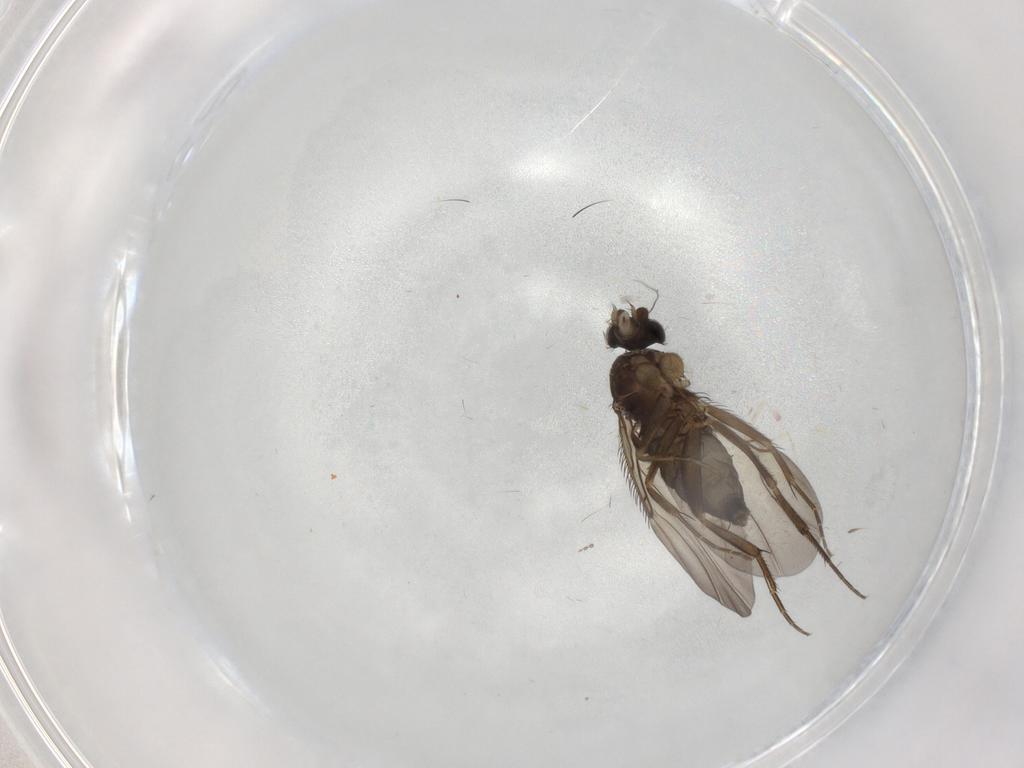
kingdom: Animalia
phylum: Arthropoda
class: Insecta
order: Diptera
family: Phoridae
